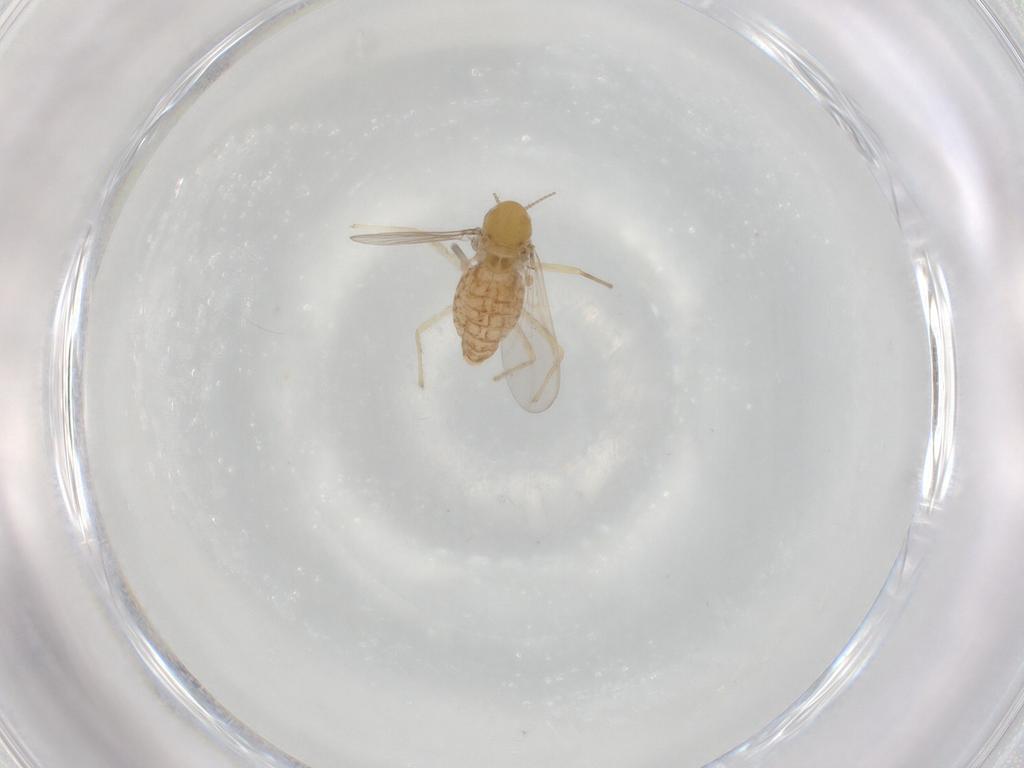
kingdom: Animalia
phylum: Arthropoda
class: Insecta
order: Diptera
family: Chironomidae
